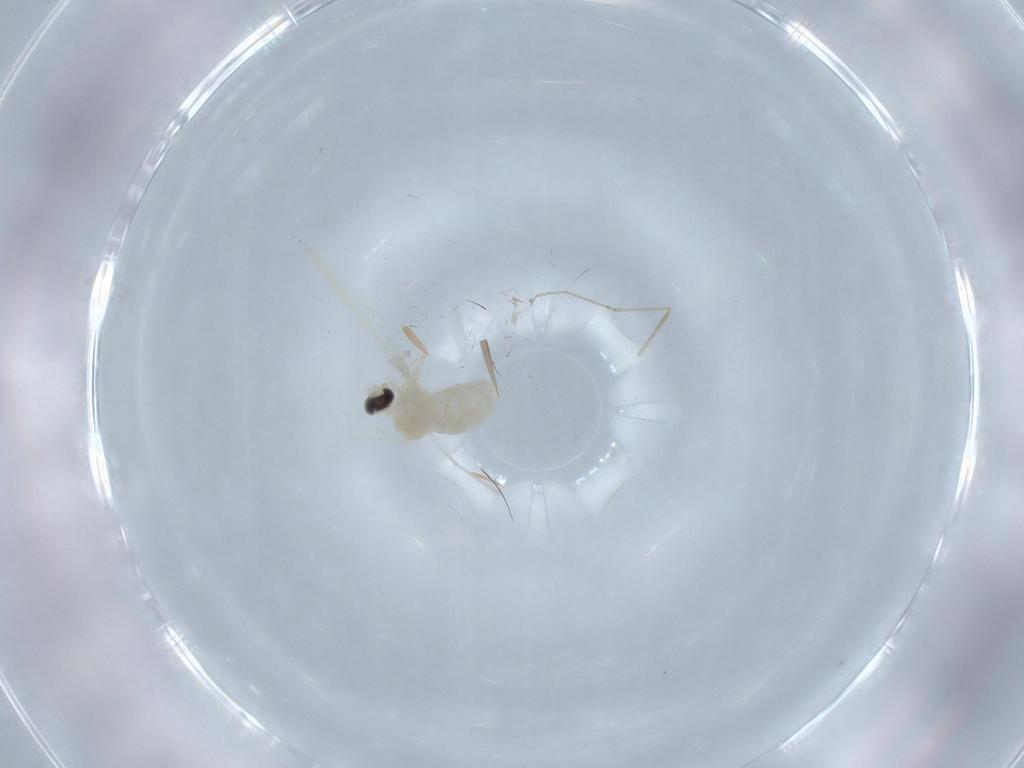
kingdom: Animalia
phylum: Arthropoda
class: Insecta
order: Diptera
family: Cecidomyiidae
